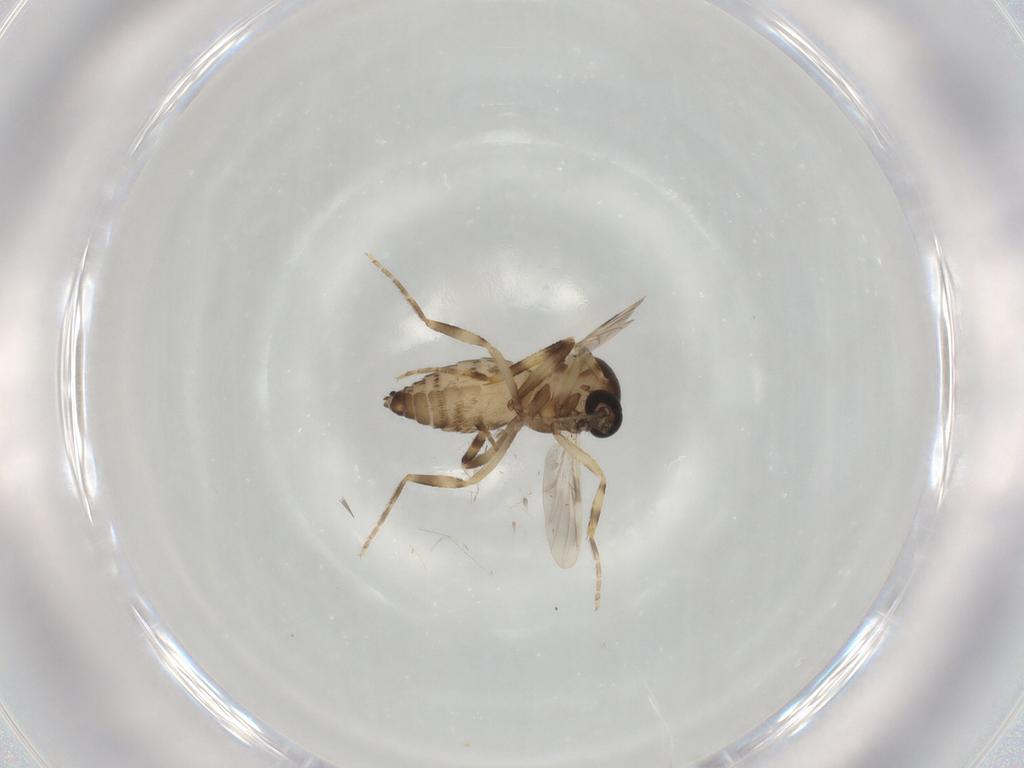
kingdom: Animalia
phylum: Arthropoda
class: Insecta
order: Diptera
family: Ceratopogonidae
